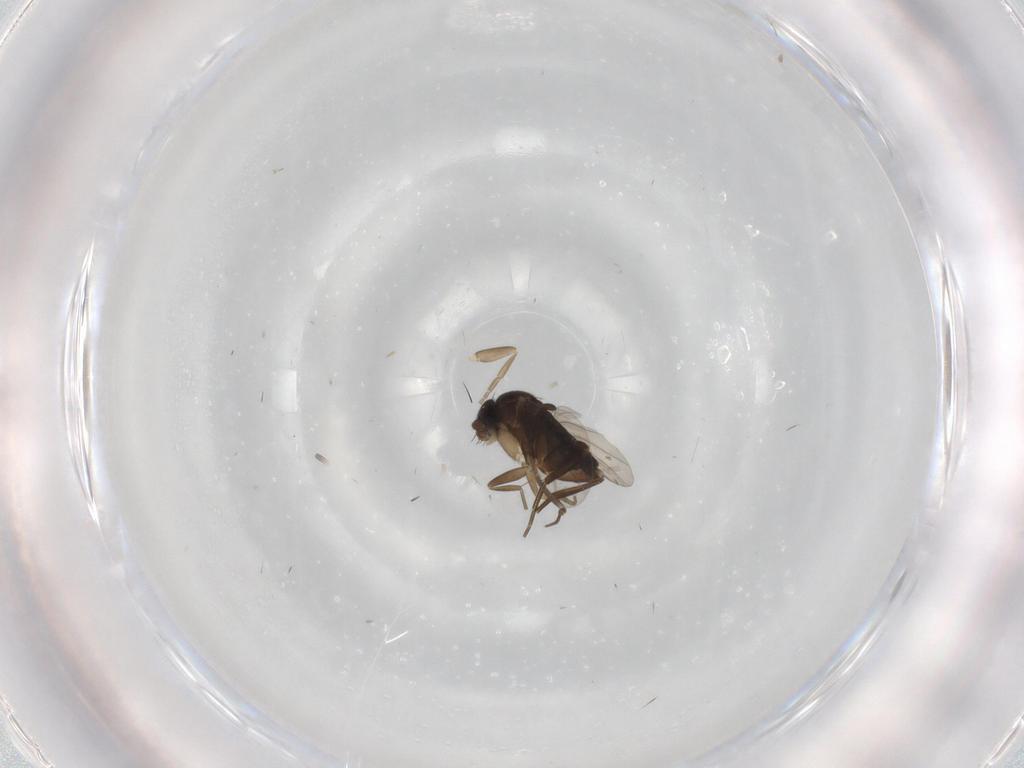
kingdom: Animalia
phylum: Arthropoda
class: Insecta
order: Diptera
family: Phoridae
